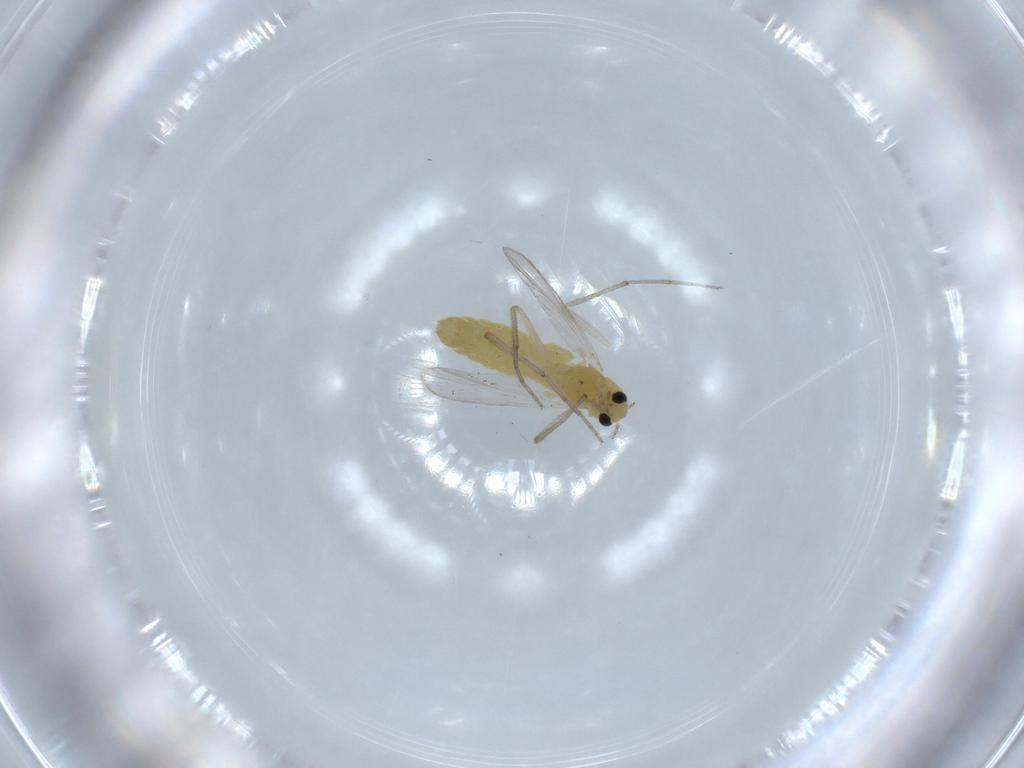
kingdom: Animalia
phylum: Arthropoda
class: Insecta
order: Diptera
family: Chironomidae
